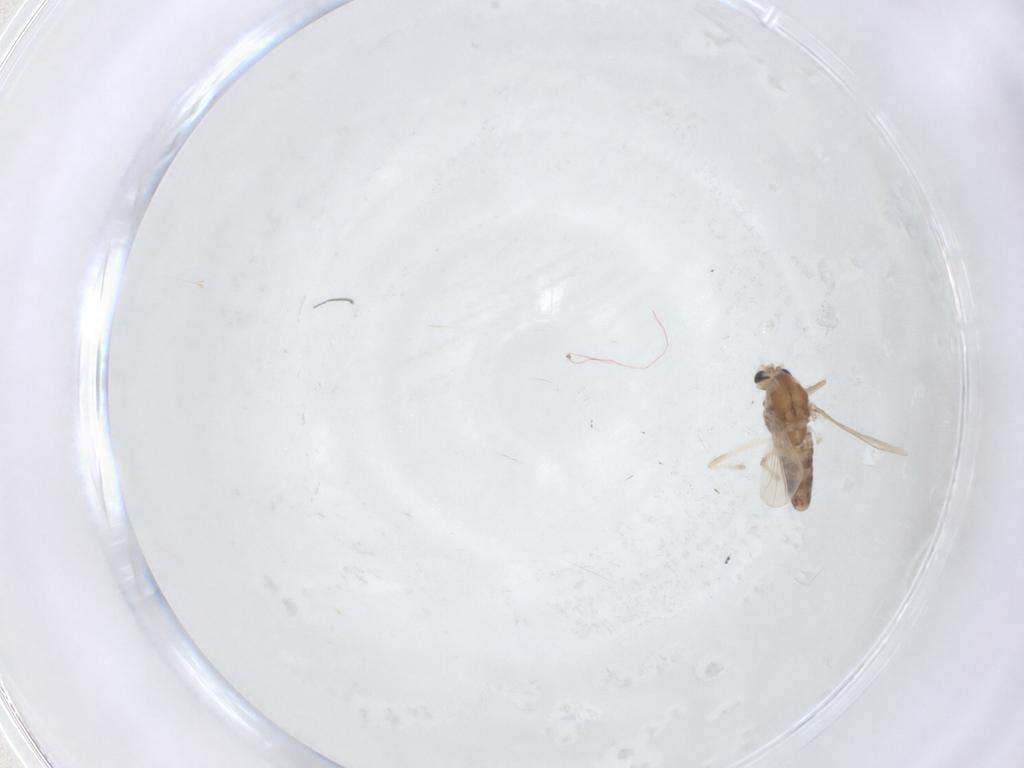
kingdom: Animalia
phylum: Arthropoda
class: Insecta
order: Diptera
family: Chironomidae
